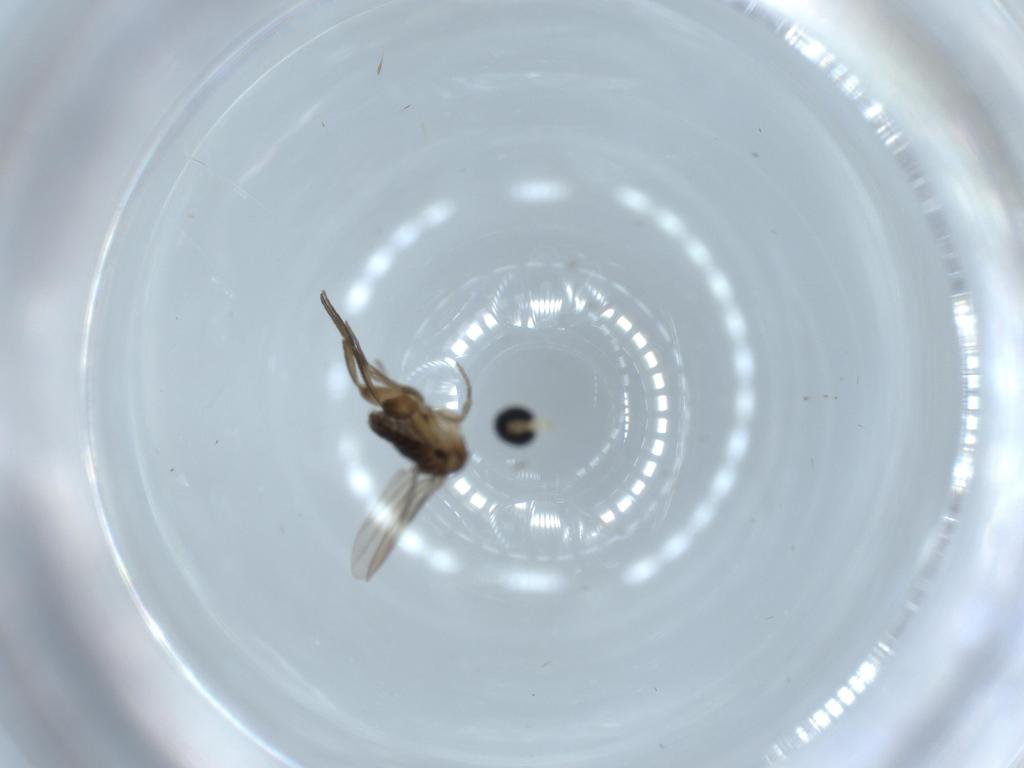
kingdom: Animalia
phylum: Arthropoda
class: Insecta
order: Diptera
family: Phoridae
